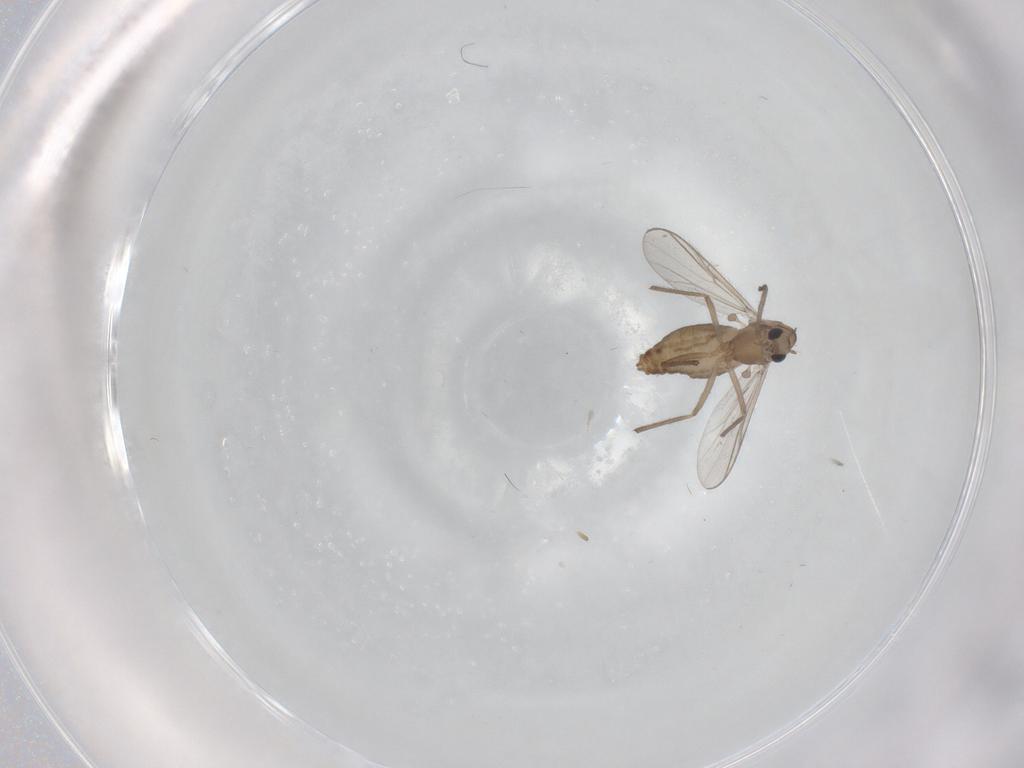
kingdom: Animalia
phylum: Arthropoda
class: Insecta
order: Diptera
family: Chironomidae
